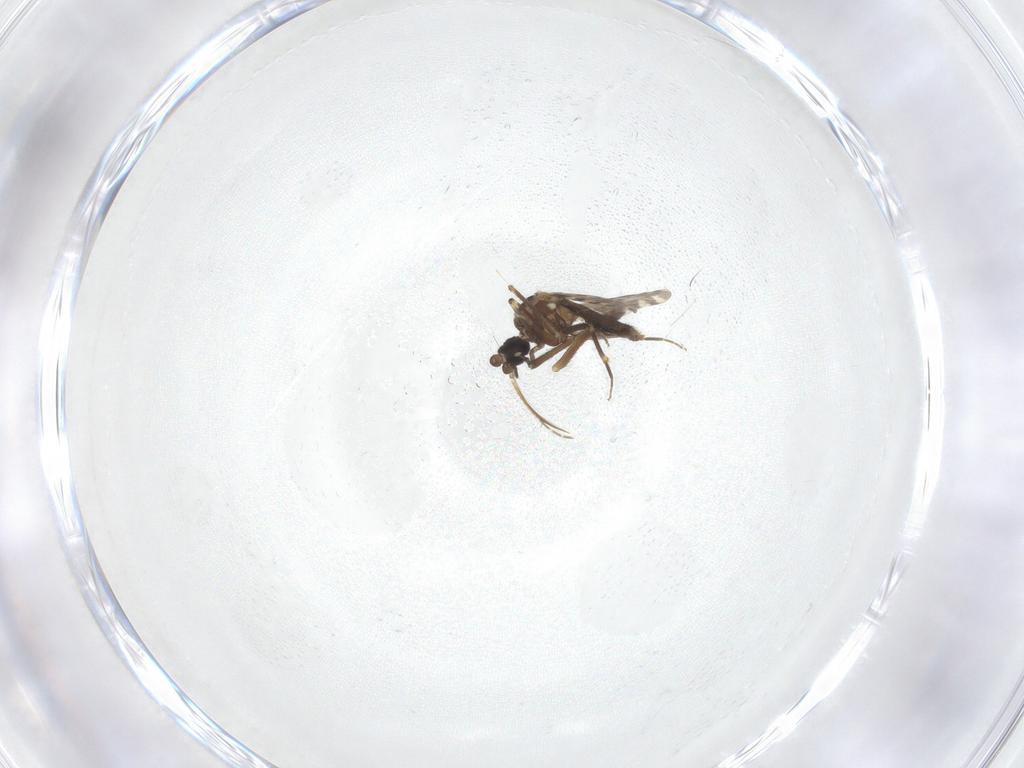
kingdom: Animalia
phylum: Arthropoda
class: Insecta
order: Diptera
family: Ceratopogonidae
